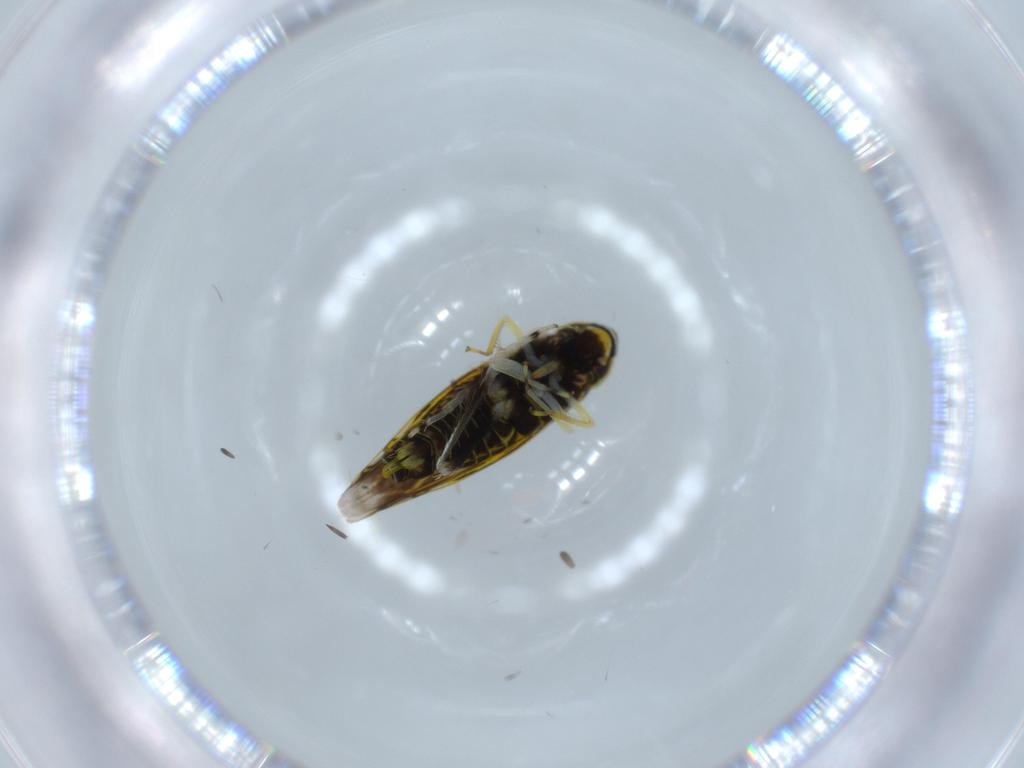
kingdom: Animalia
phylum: Arthropoda
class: Insecta
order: Hemiptera
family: Cicadellidae
